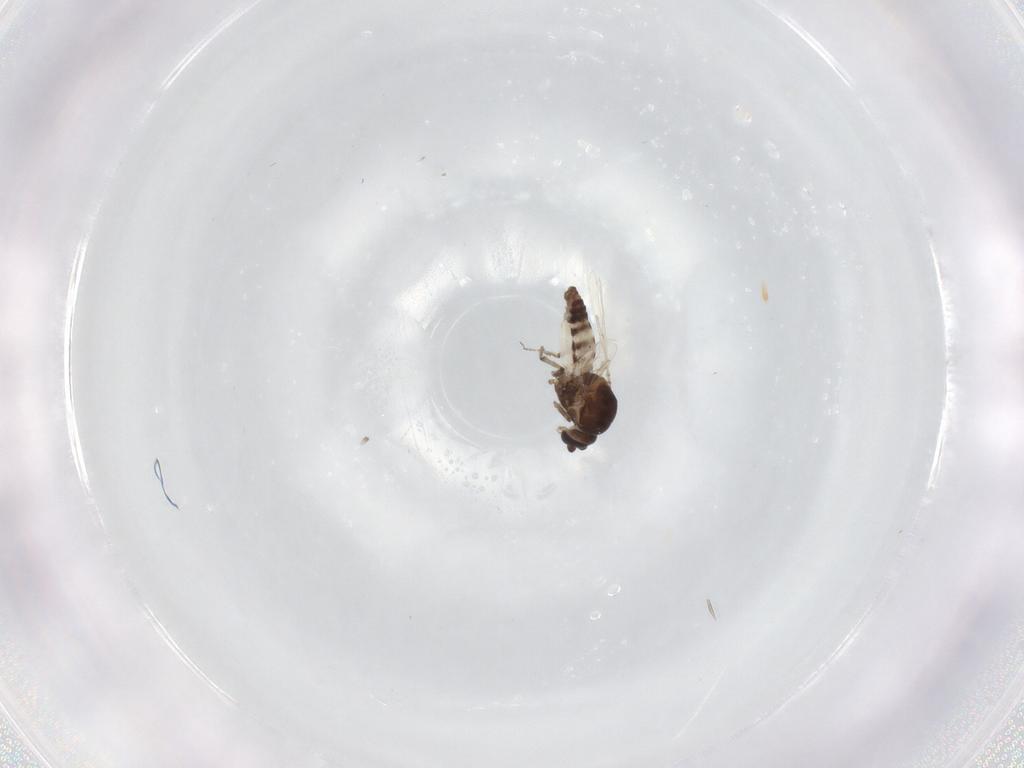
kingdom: Animalia
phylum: Arthropoda
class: Insecta
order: Diptera
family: Ceratopogonidae
